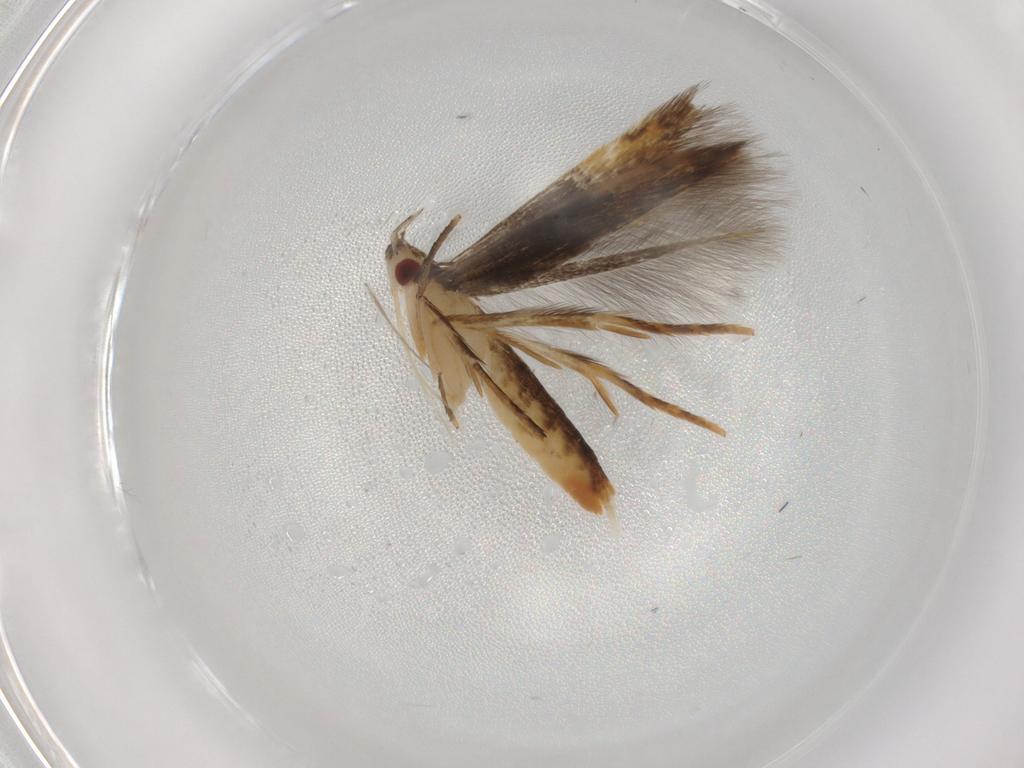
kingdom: Animalia
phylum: Arthropoda
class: Insecta
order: Lepidoptera
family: Gelechiidae
